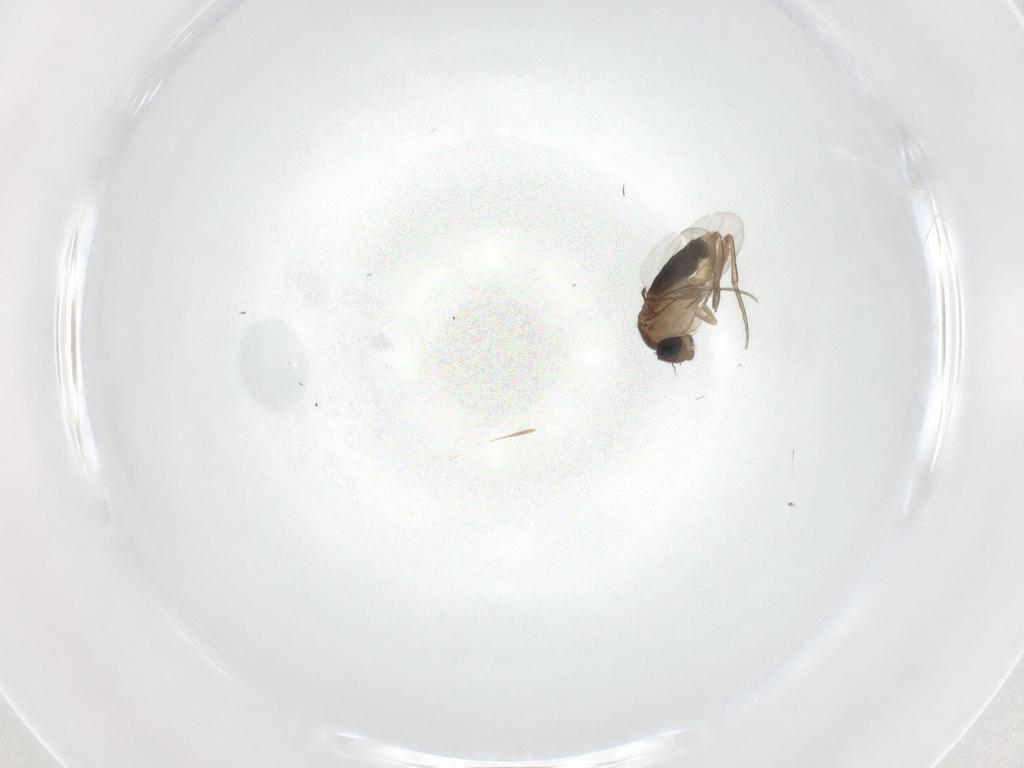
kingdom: Animalia
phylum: Arthropoda
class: Insecta
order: Diptera
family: Phoridae
